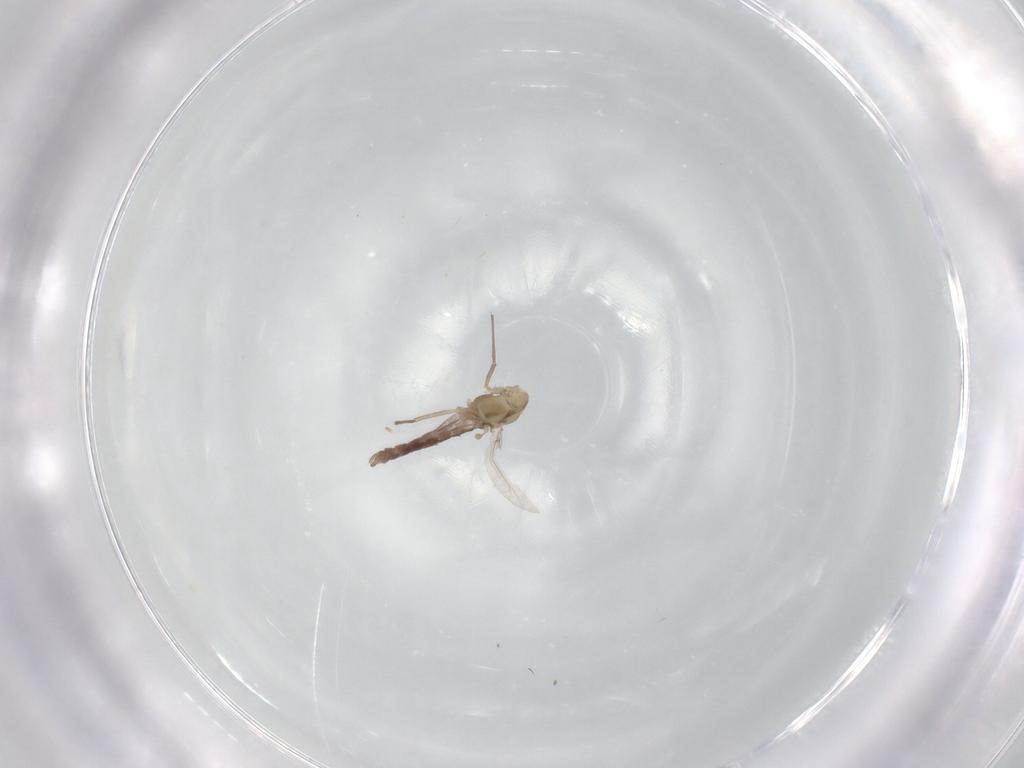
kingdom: Animalia
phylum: Arthropoda
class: Insecta
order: Diptera
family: Chironomidae
